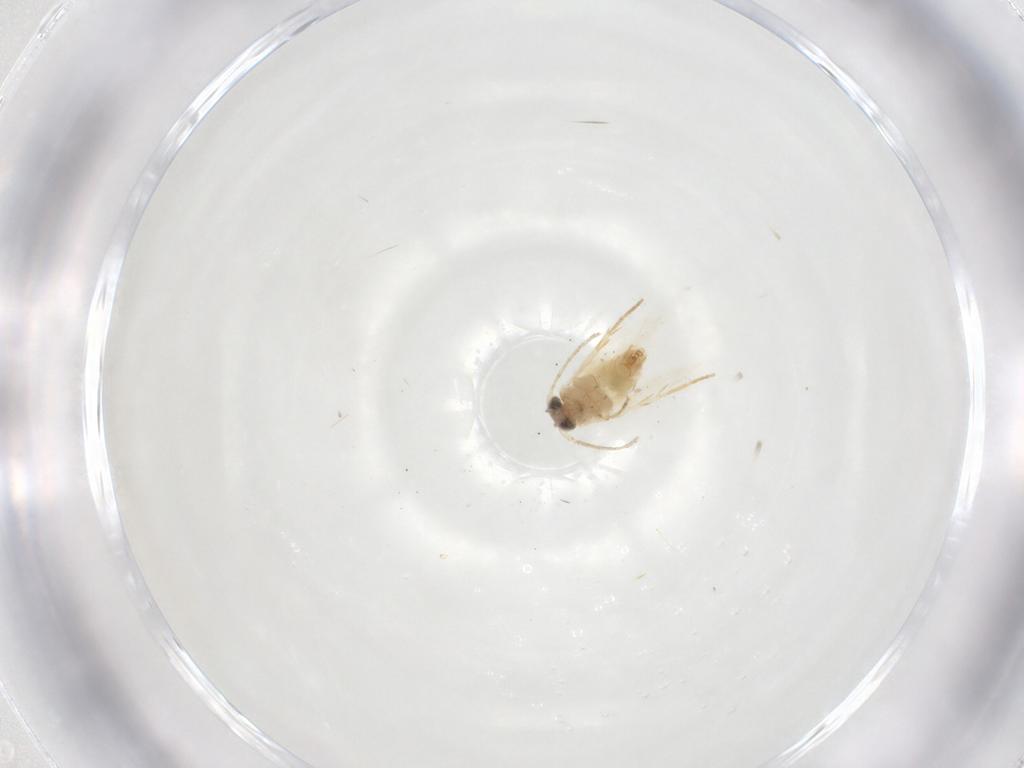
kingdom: Animalia
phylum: Arthropoda
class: Insecta
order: Lepidoptera
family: Crambidae
